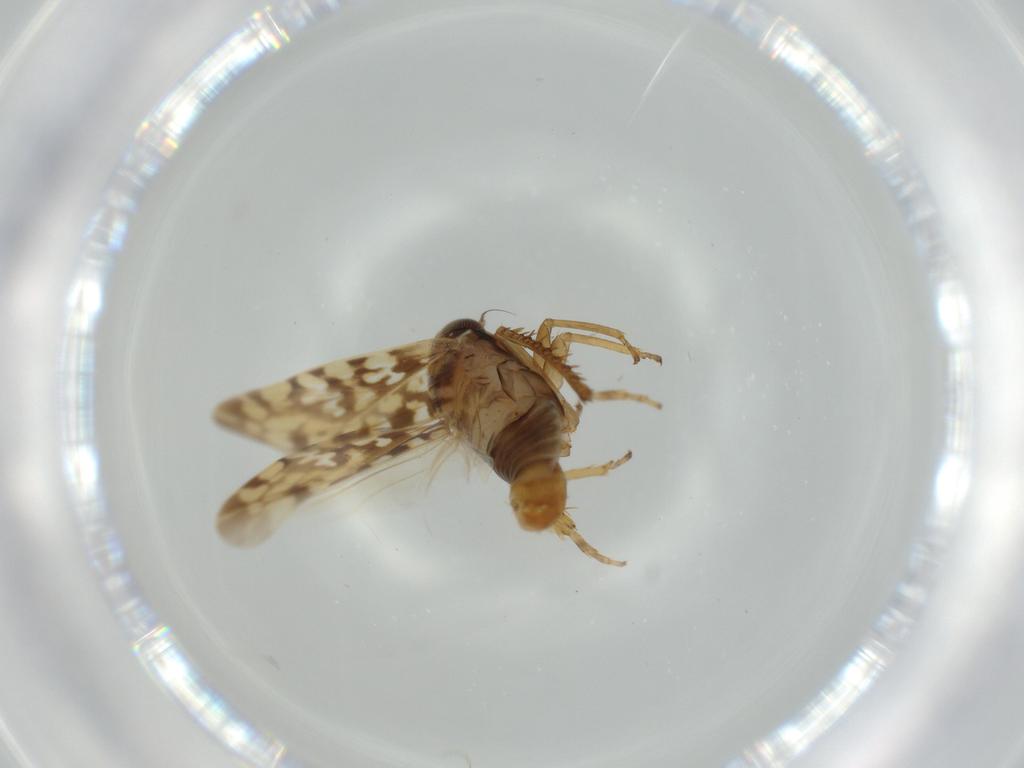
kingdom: Animalia
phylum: Arthropoda
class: Insecta
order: Hemiptera
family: Cicadellidae
